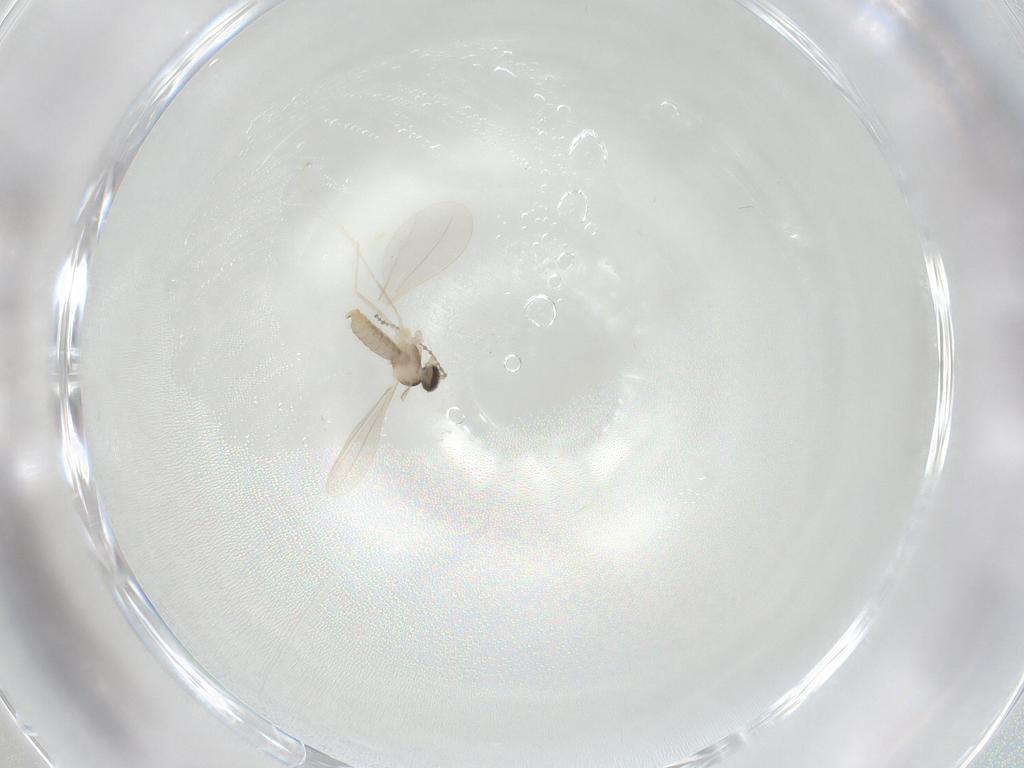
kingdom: Animalia
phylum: Arthropoda
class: Insecta
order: Diptera
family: Cecidomyiidae
